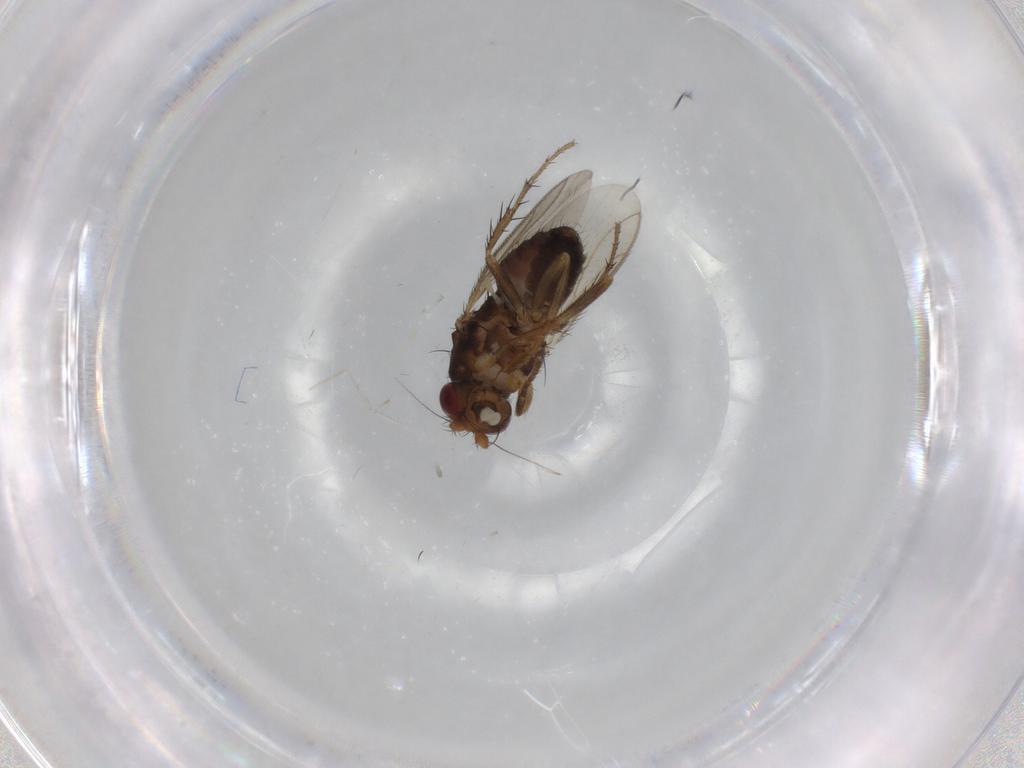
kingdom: Animalia
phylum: Arthropoda
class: Insecta
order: Diptera
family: Sphaeroceridae
